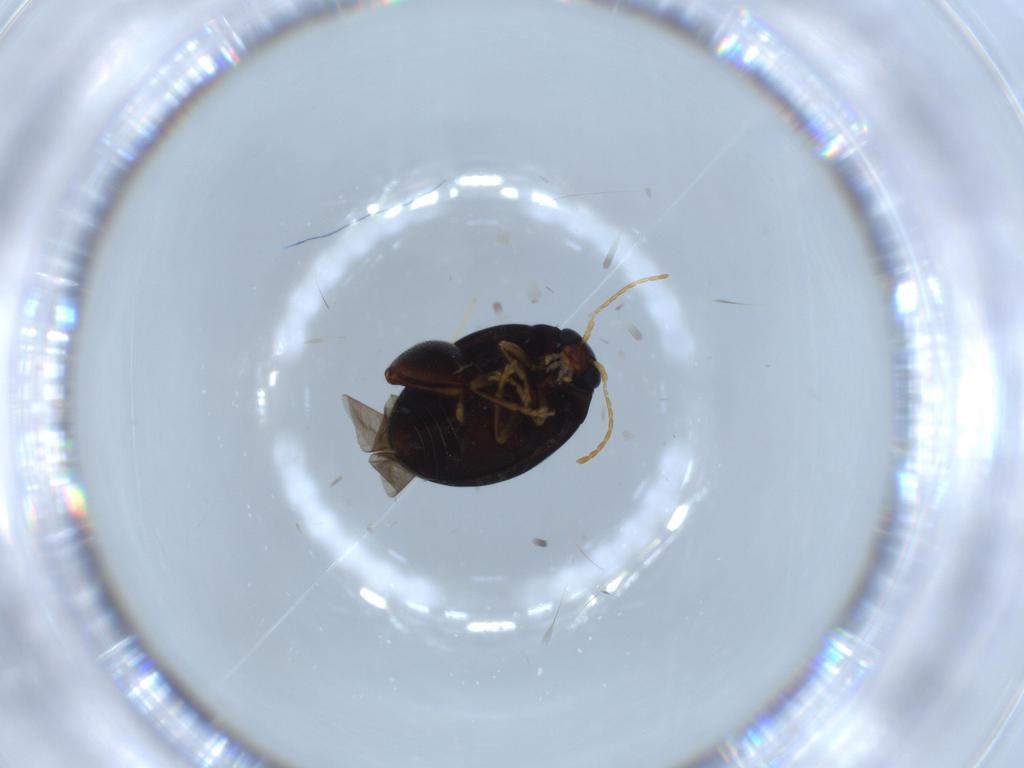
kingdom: Animalia
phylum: Arthropoda
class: Insecta
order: Coleoptera
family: Chrysomelidae
